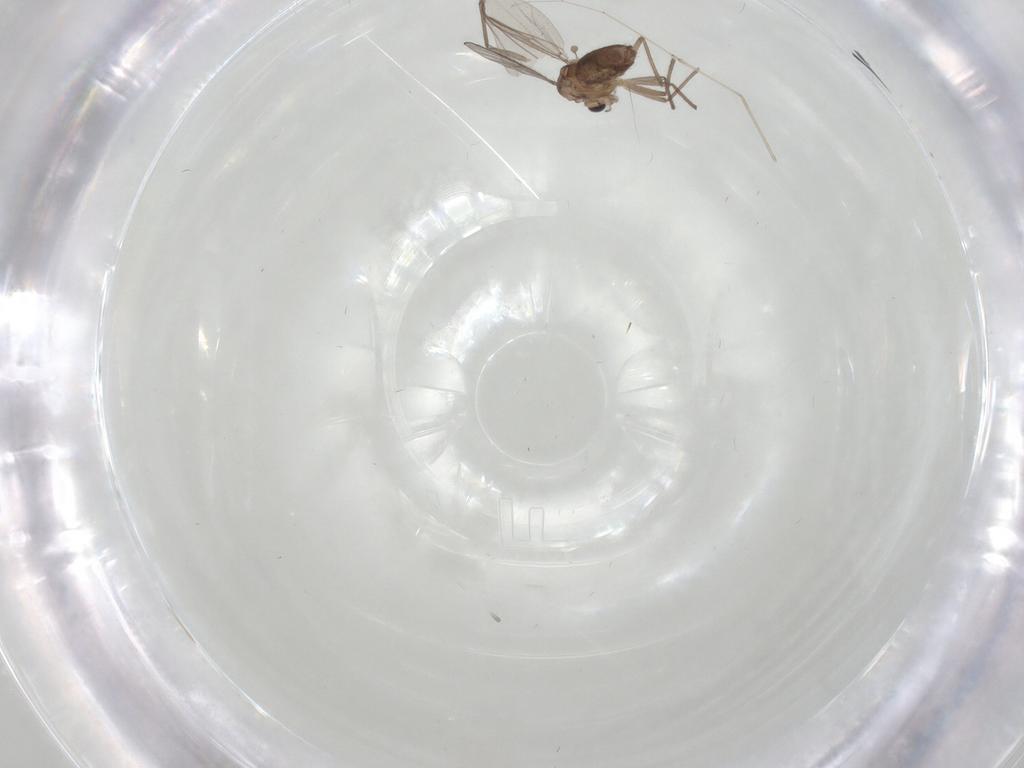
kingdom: Animalia
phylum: Arthropoda
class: Insecta
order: Diptera
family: Chironomidae
